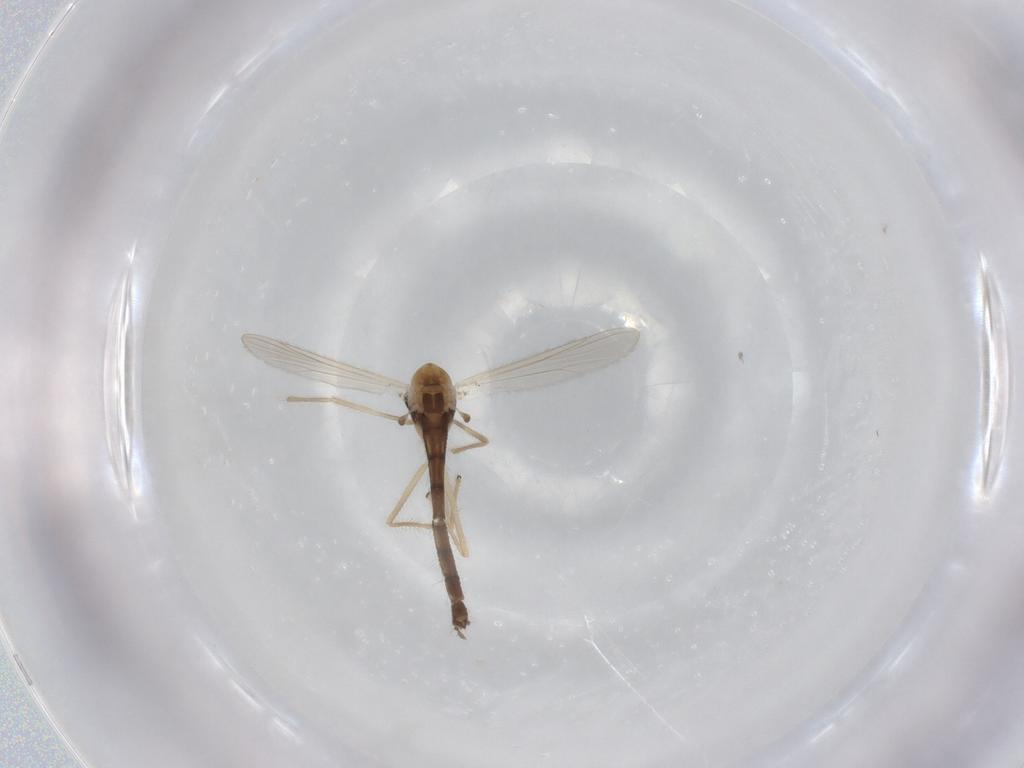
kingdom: Animalia
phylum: Arthropoda
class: Insecta
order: Diptera
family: Chironomidae
